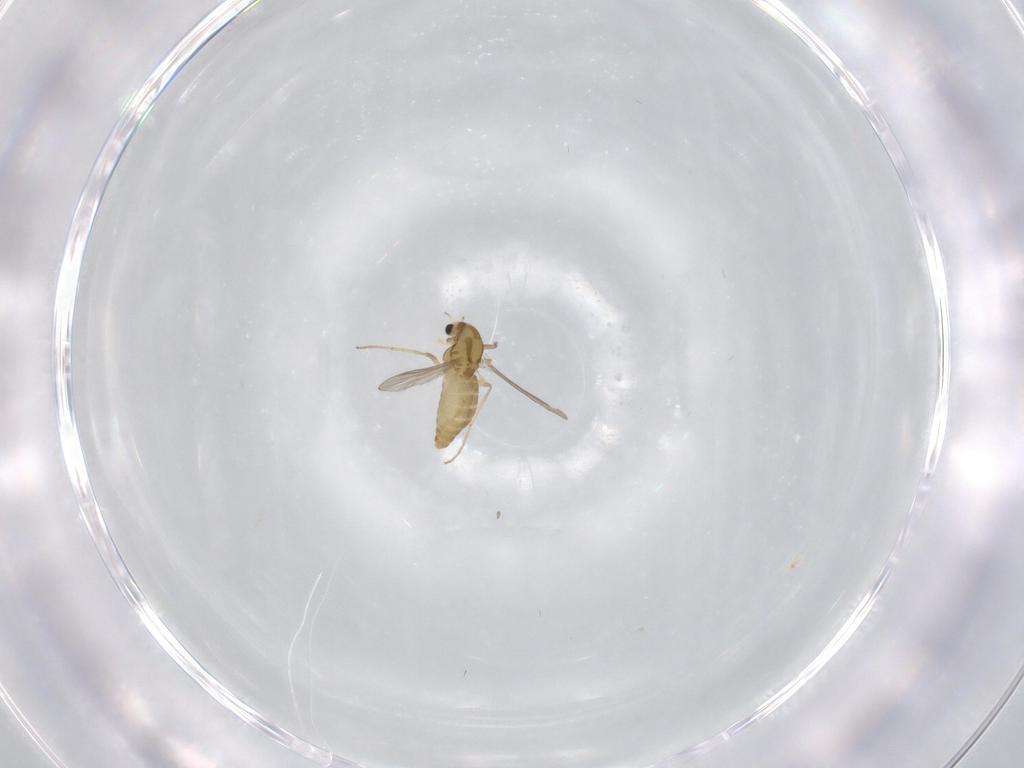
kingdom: Animalia
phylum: Arthropoda
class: Insecta
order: Diptera
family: Chironomidae
